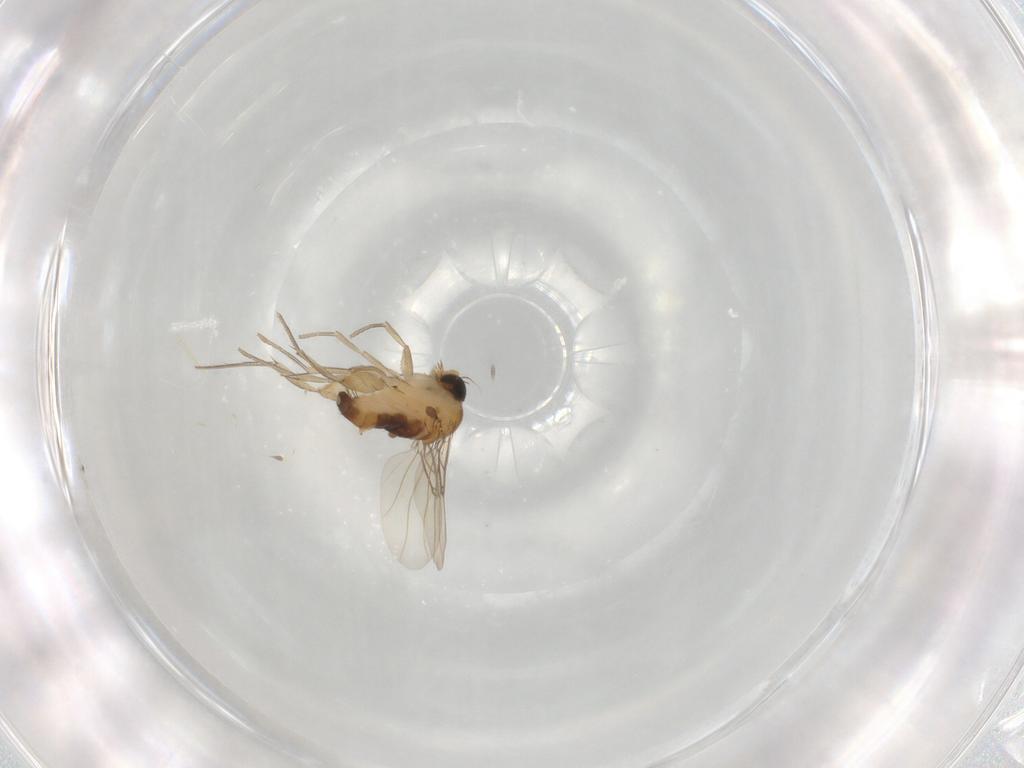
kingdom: Animalia
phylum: Arthropoda
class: Insecta
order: Diptera
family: Phoridae
